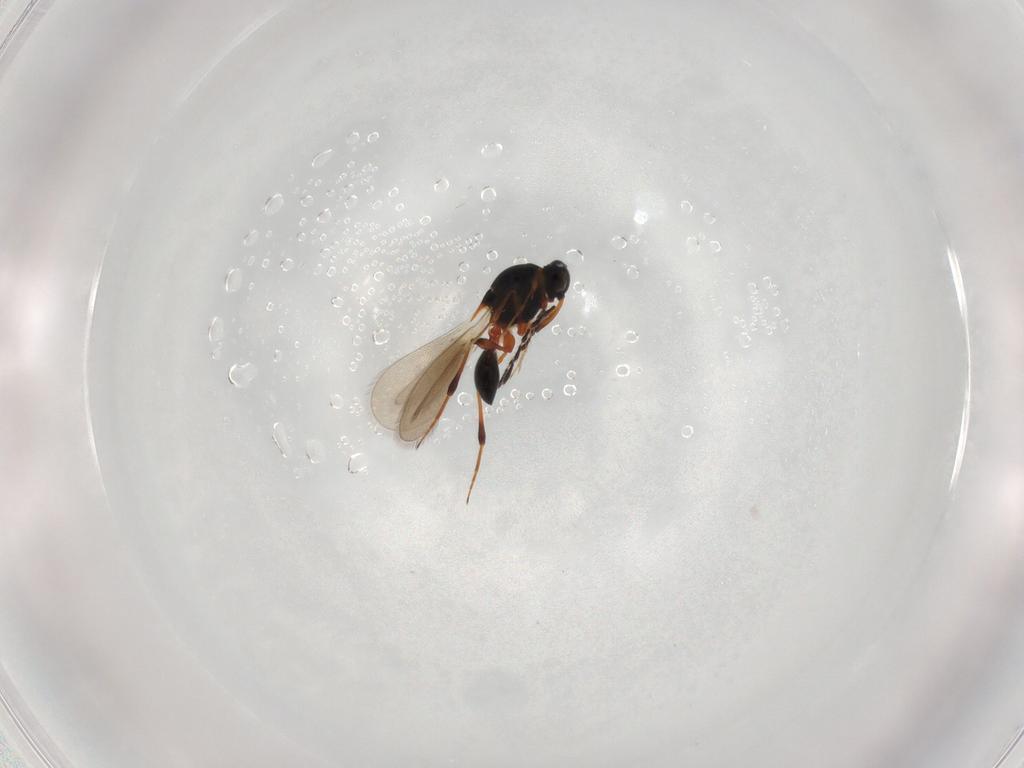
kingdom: Animalia
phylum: Arthropoda
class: Insecta
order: Hymenoptera
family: Platygastridae
